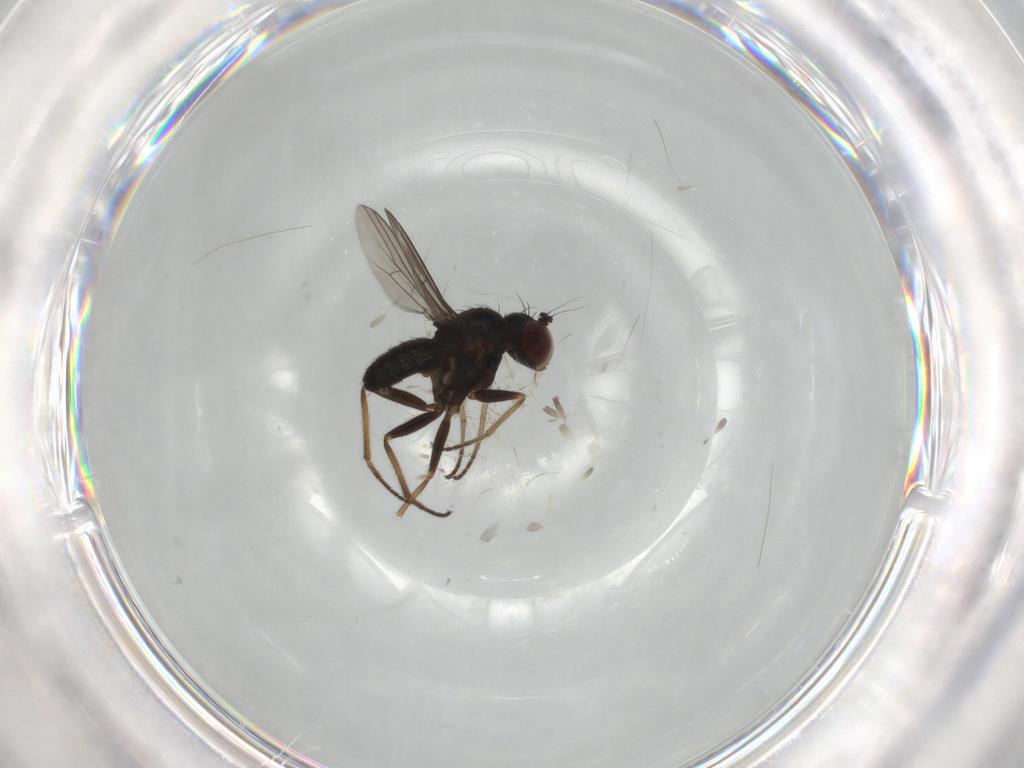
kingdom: Animalia
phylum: Arthropoda
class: Insecta
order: Diptera
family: Dolichopodidae
